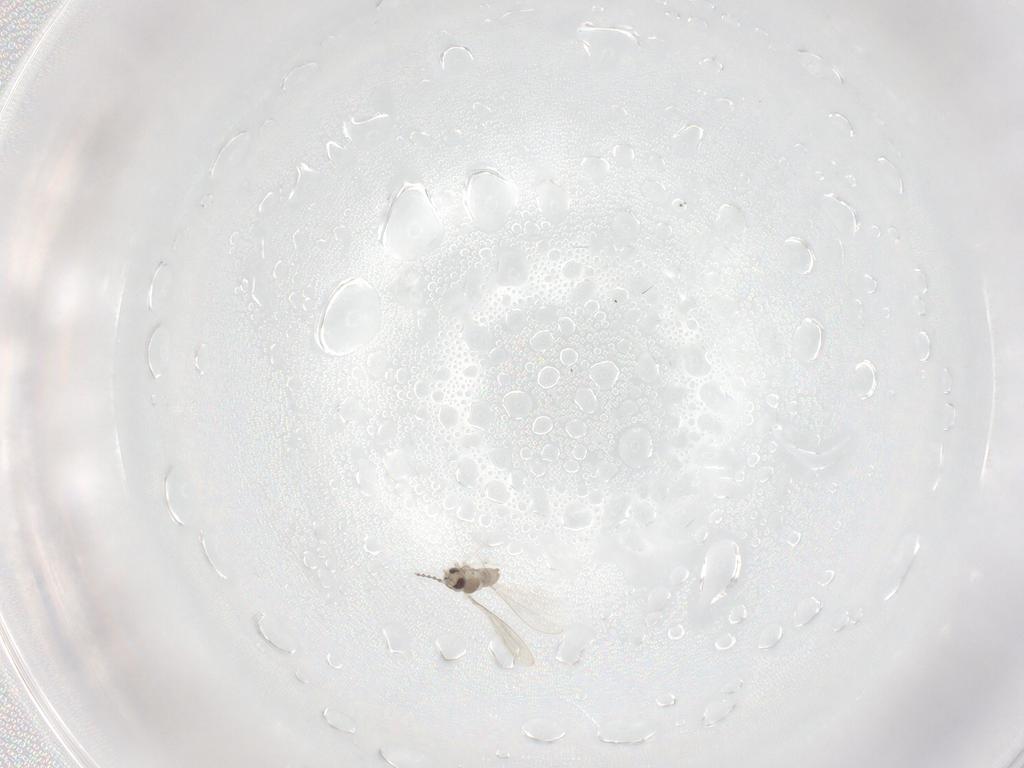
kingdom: Animalia
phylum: Arthropoda
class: Insecta
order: Diptera
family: Cecidomyiidae
